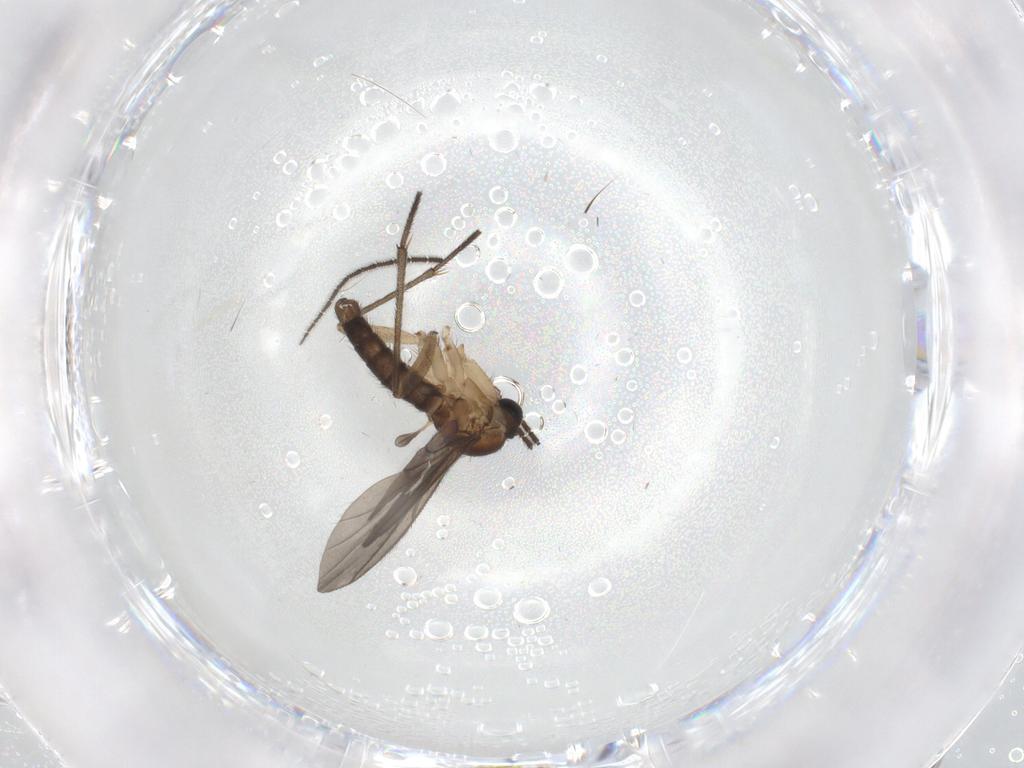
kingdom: Animalia
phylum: Arthropoda
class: Insecta
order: Diptera
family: Sciaridae
